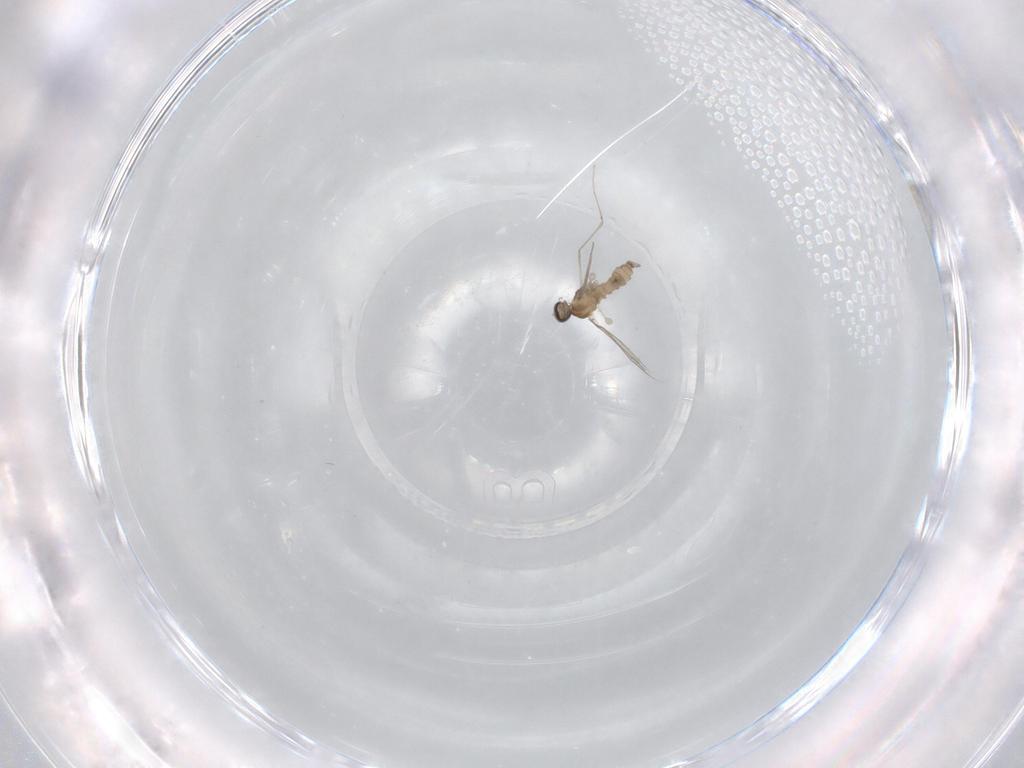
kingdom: Animalia
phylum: Arthropoda
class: Insecta
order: Diptera
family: Cecidomyiidae
